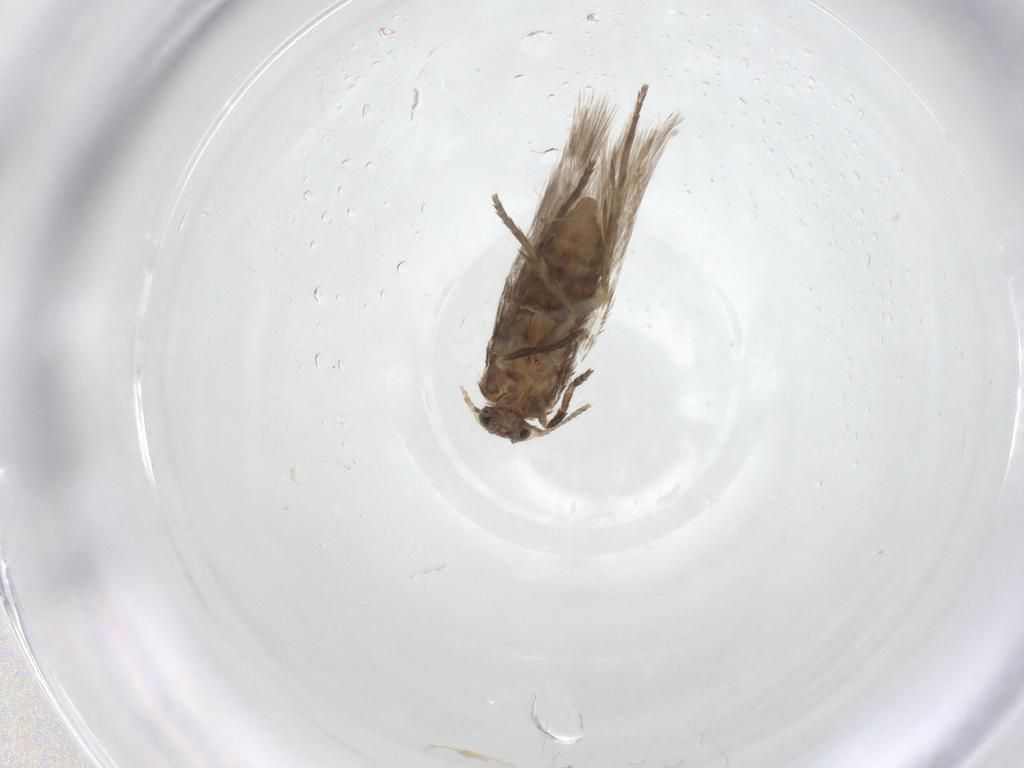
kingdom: Animalia
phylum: Arthropoda
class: Insecta
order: Lepidoptera
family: Nepticulidae
